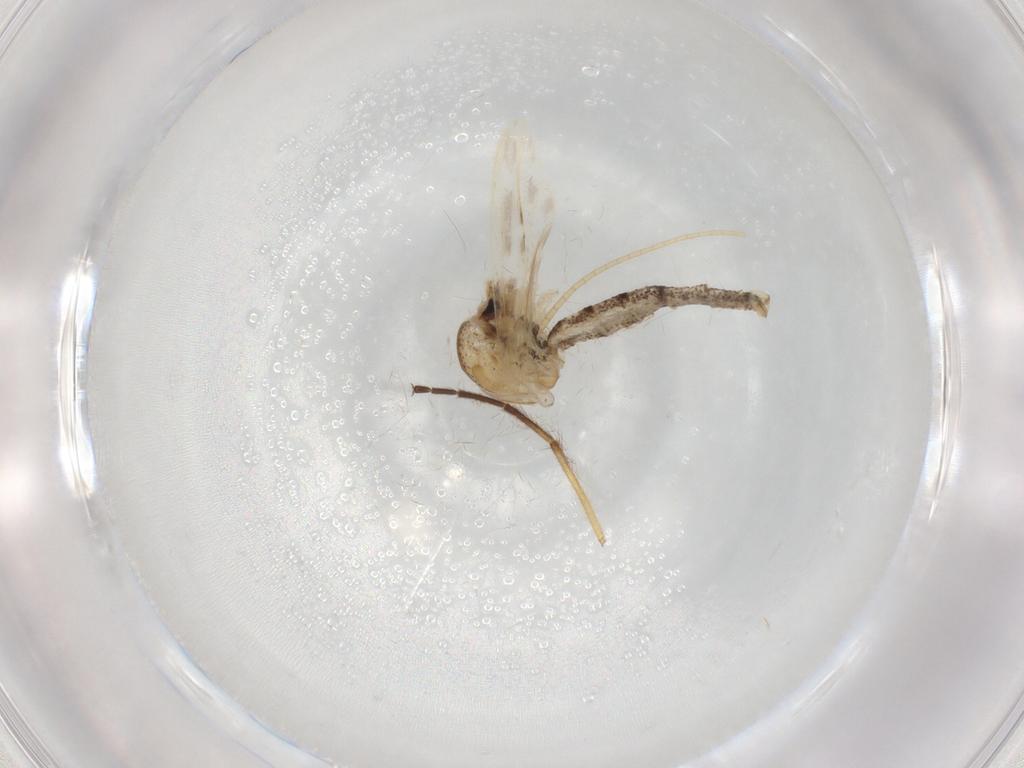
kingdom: Animalia
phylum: Arthropoda
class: Insecta
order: Diptera
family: Chaoboridae
